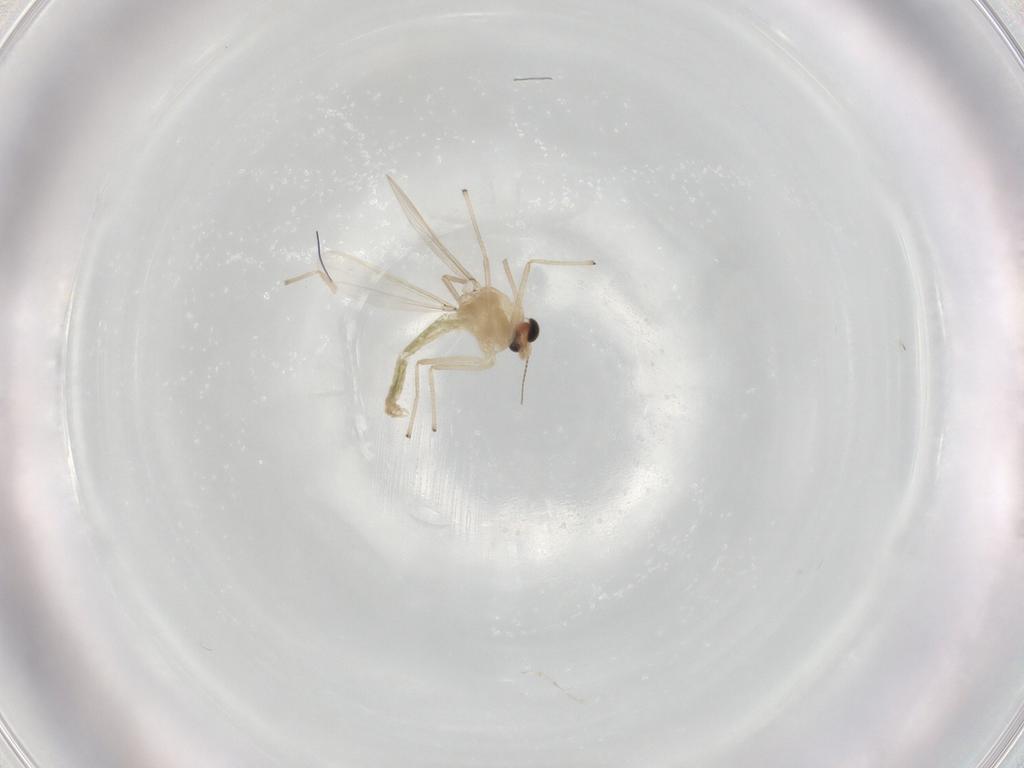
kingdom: Animalia
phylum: Arthropoda
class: Insecta
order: Diptera
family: Chironomidae
